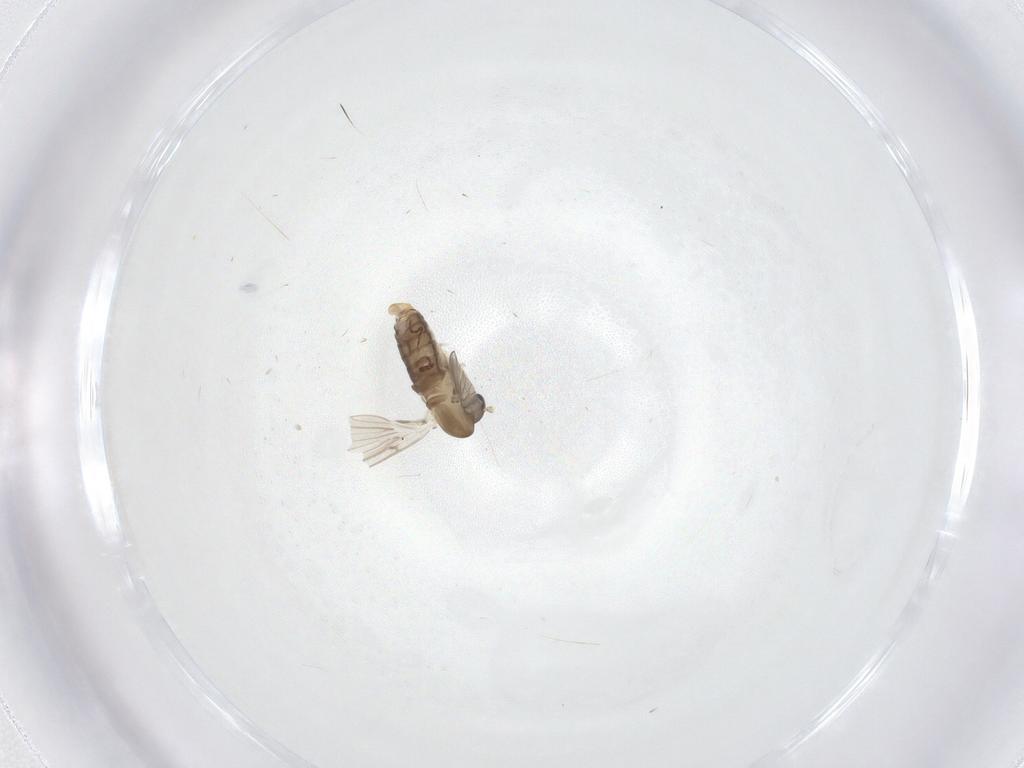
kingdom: Animalia
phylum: Arthropoda
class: Insecta
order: Diptera
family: Psychodidae
